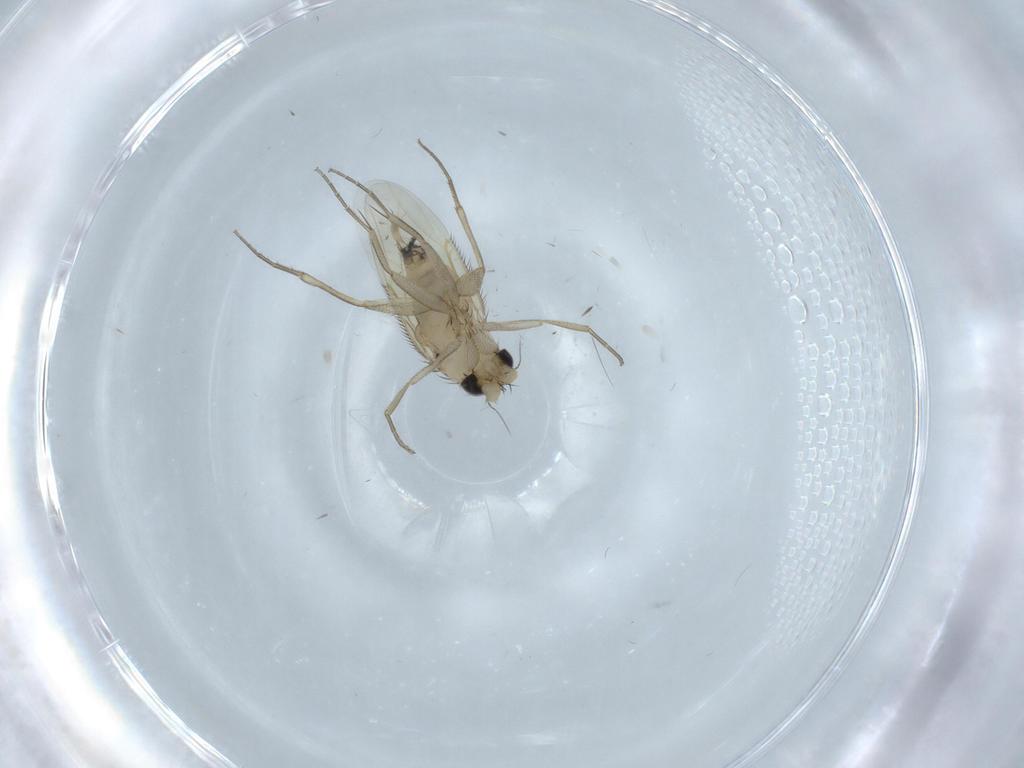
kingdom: Animalia
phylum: Arthropoda
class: Insecta
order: Diptera
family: Phoridae
